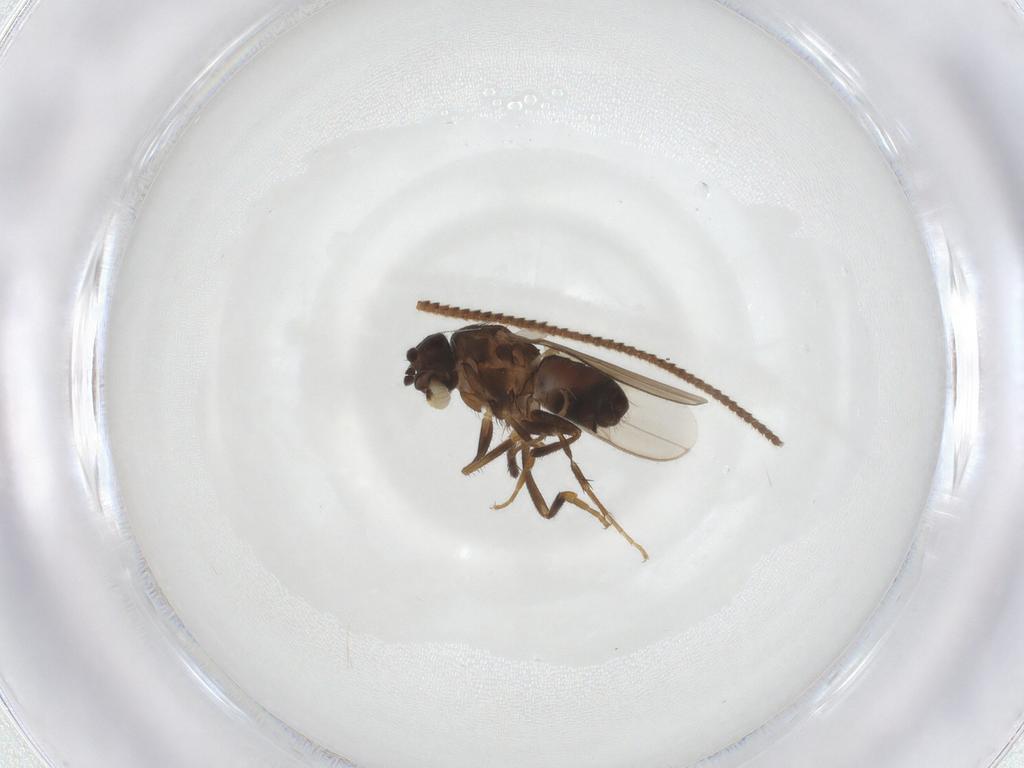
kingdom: Animalia
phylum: Arthropoda
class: Insecta
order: Diptera
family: Sphaeroceridae
